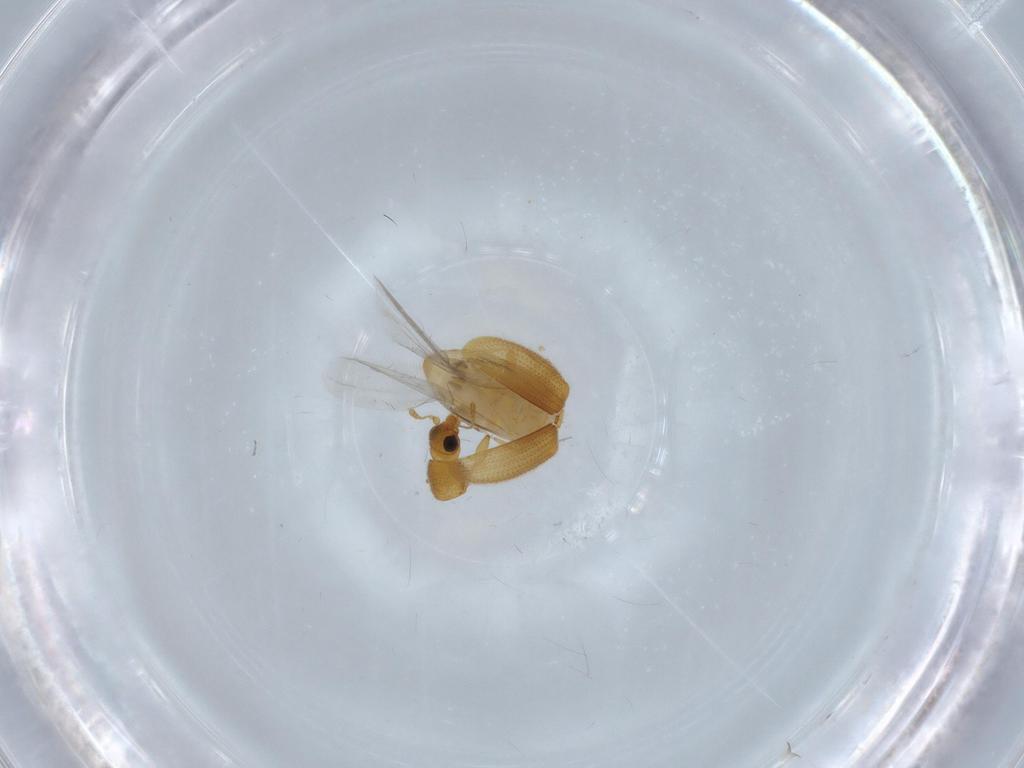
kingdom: Animalia
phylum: Arthropoda
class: Insecta
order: Coleoptera
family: Latridiidae
